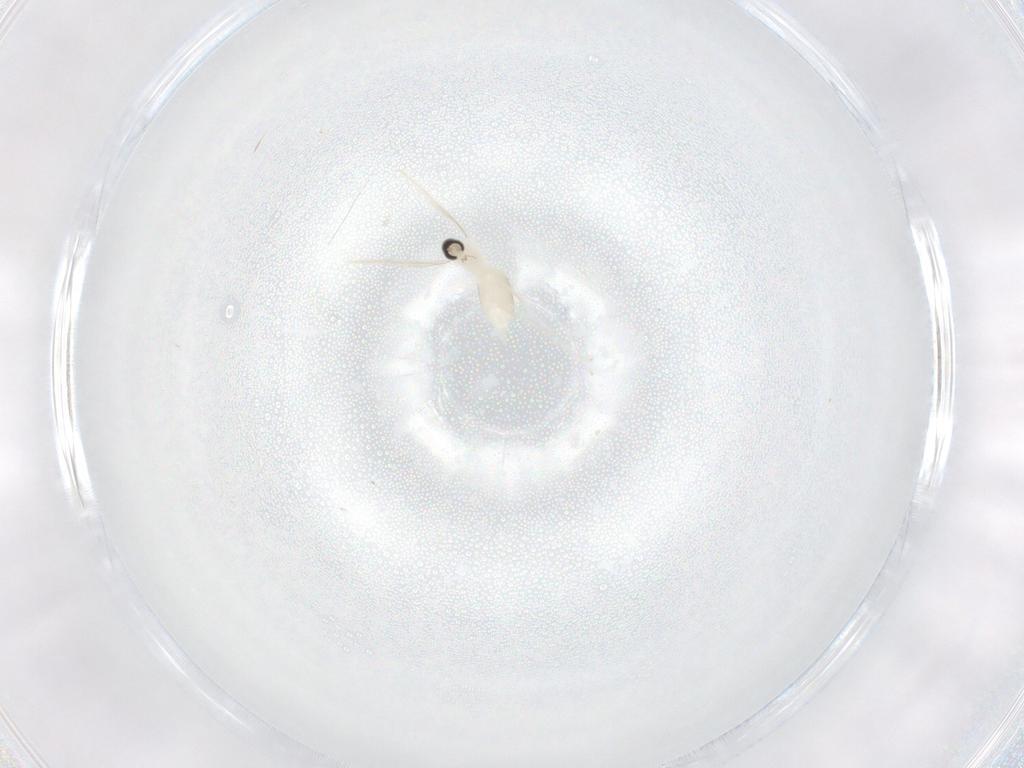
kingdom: Animalia
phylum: Arthropoda
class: Insecta
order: Diptera
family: Cecidomyiidae
